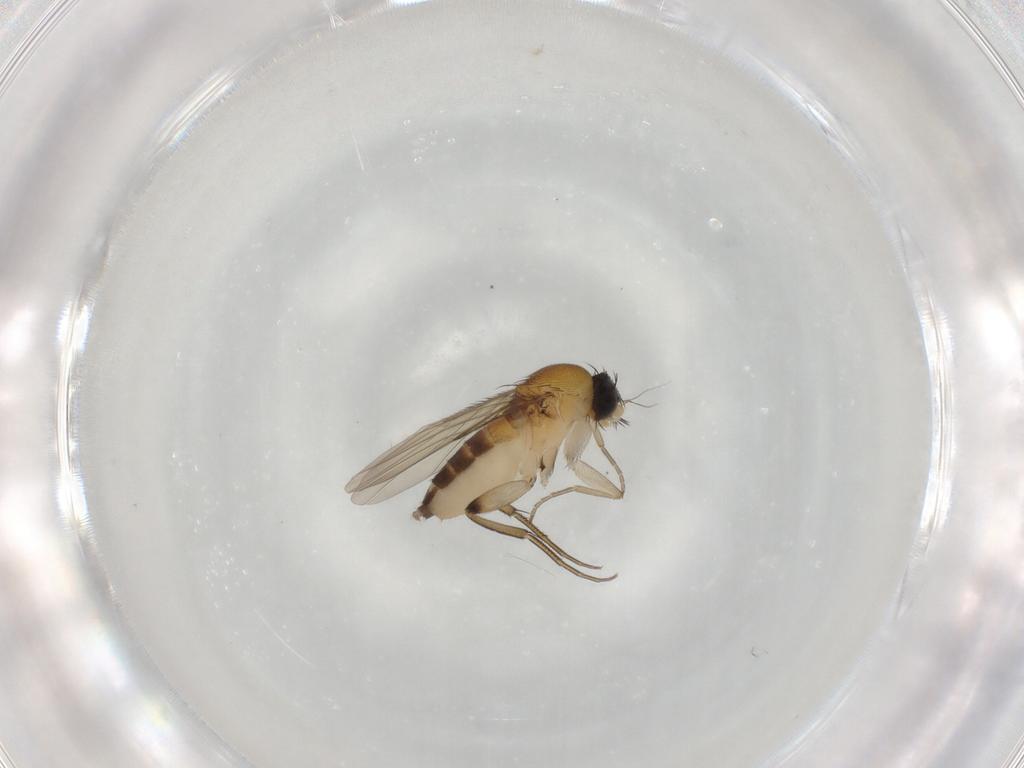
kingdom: Animalia
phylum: Arthropoda
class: Insecta
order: Diptera
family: Phoridae
